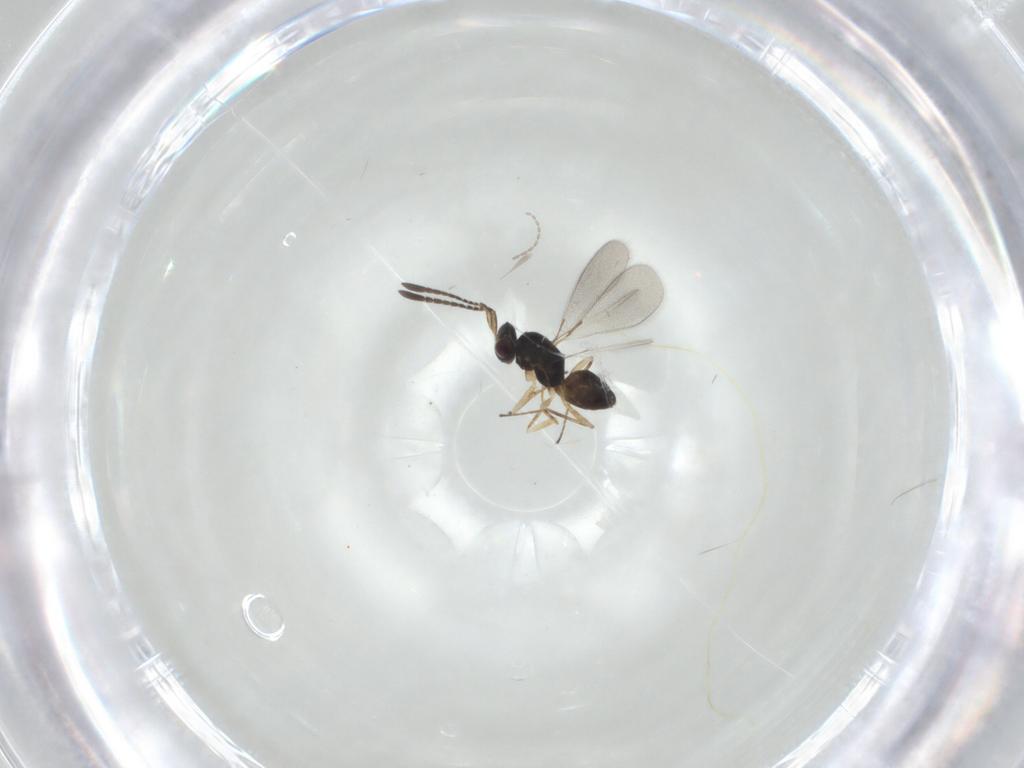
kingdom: Animalia
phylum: Arthropoda
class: Insecta
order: Hymenoptera
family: Mymaridae
